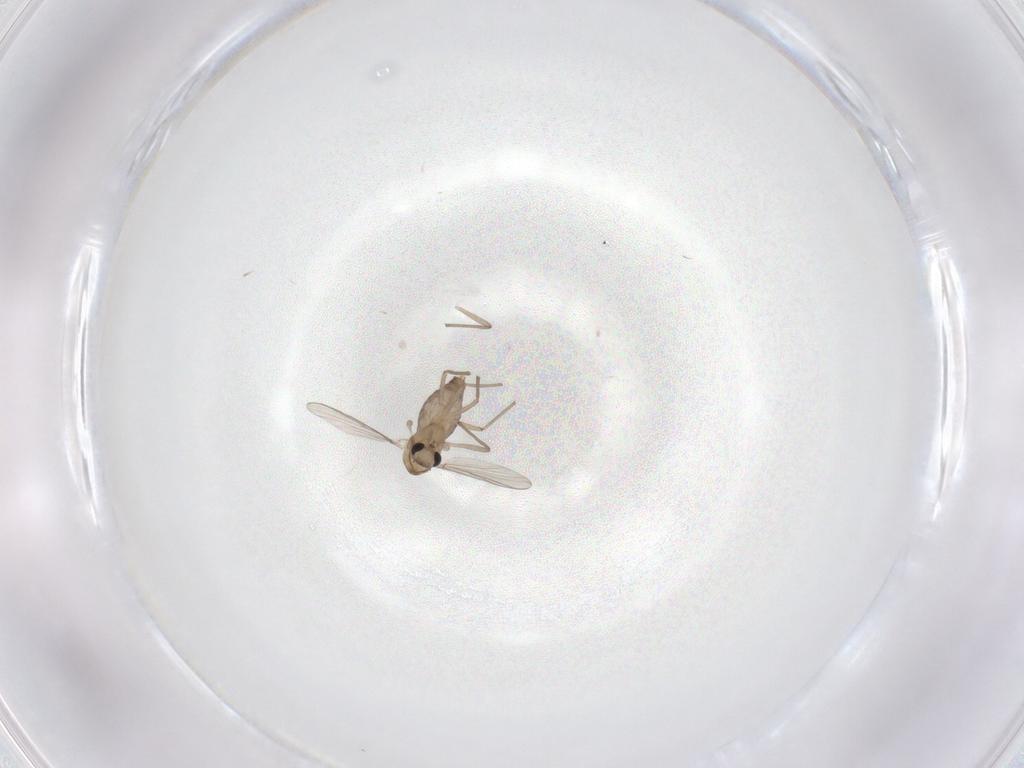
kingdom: Animalia
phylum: Arthropoda
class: Insecta
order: Diptera
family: Chironomidae
